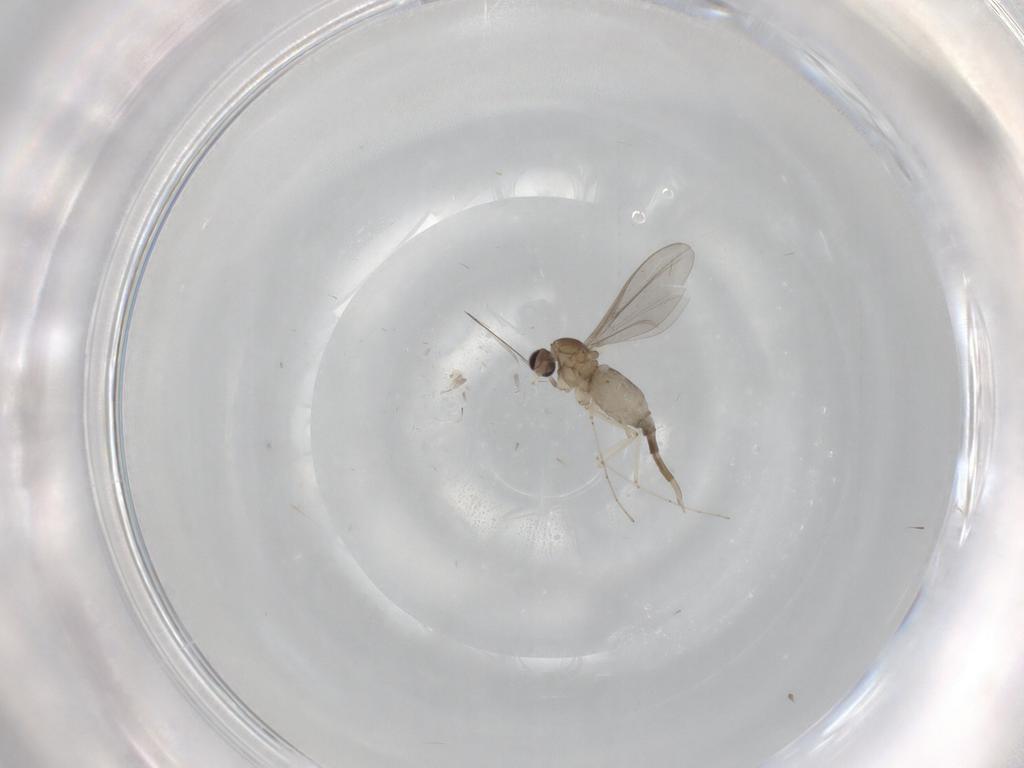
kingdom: Animalia
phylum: Arthropoda
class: Insecta
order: Diptera
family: Cecidomyiidae
